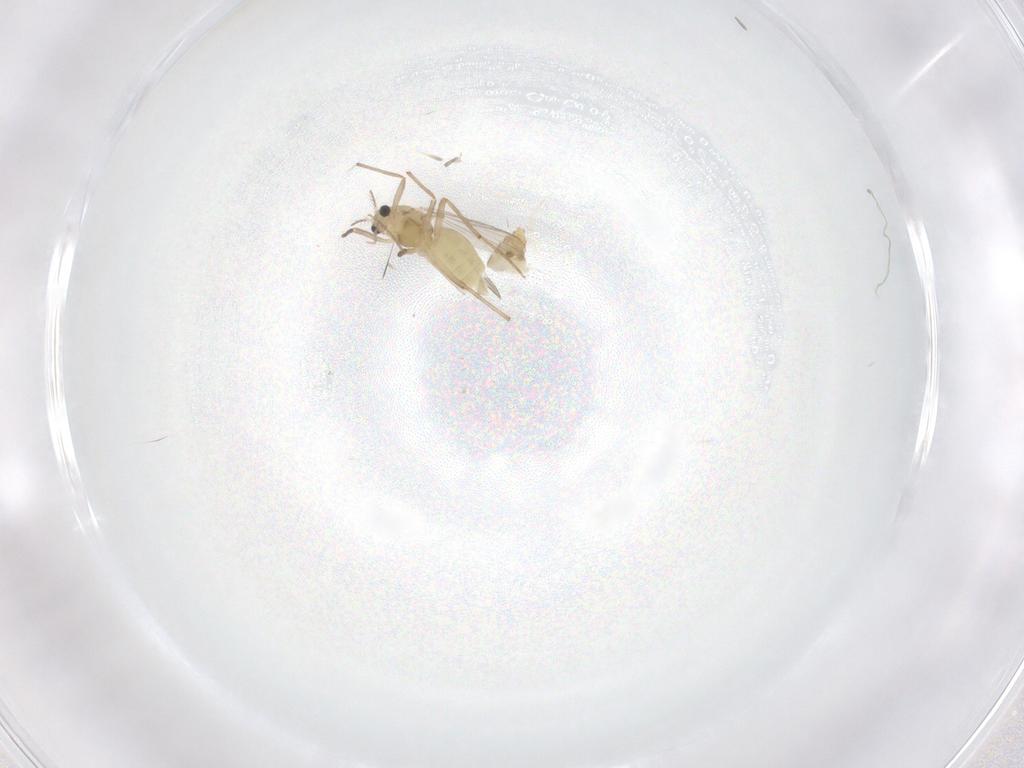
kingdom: Animalia
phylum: Arthropoda
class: Insecta
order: Diptera
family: Chironomidae
